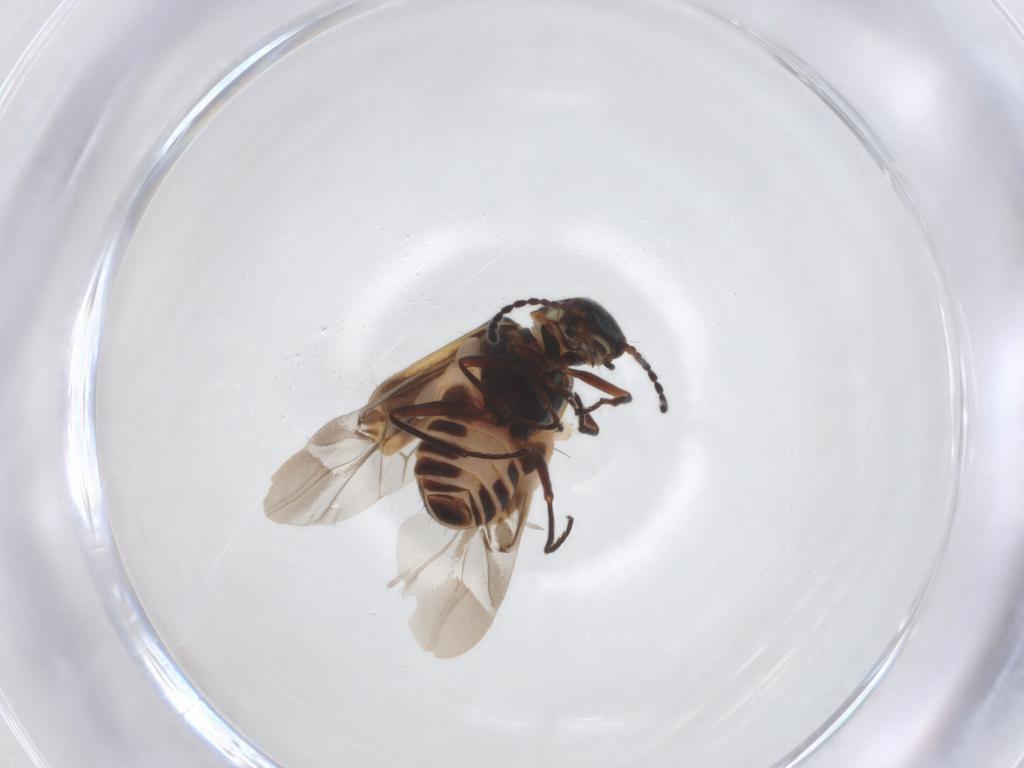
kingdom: Animalia
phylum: Arthropoda
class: Insecta
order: Coleoptera
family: Melyridae
